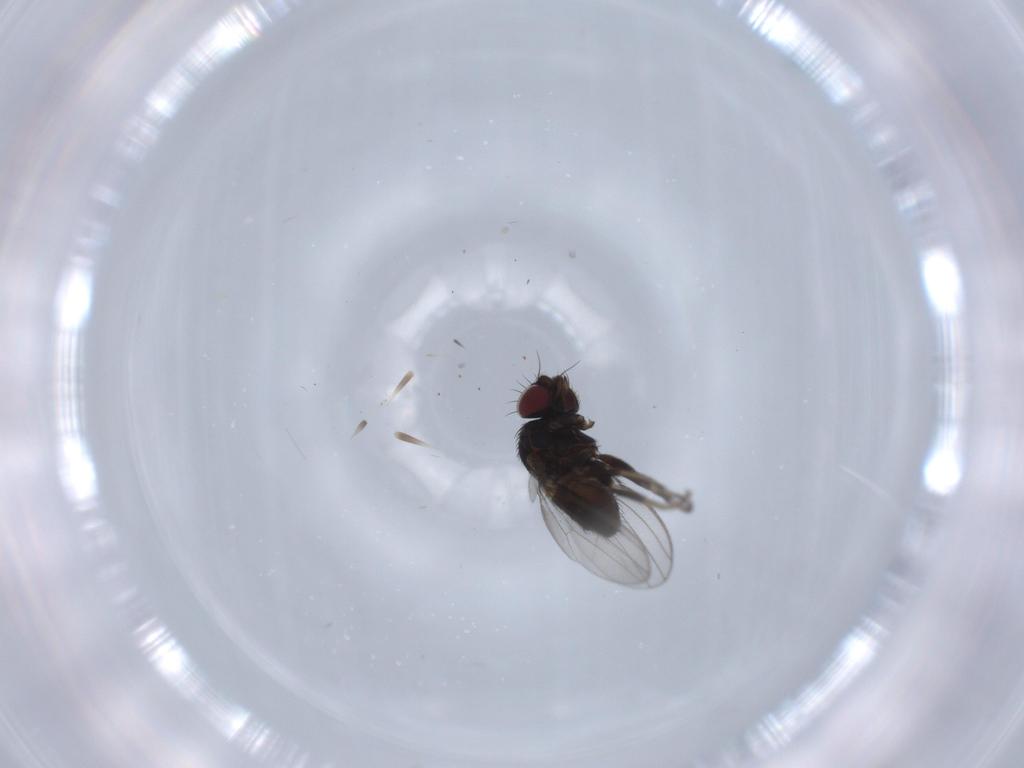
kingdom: Animalia
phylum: Arthropoda
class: Insecta
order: Diptera
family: Milichiidae
